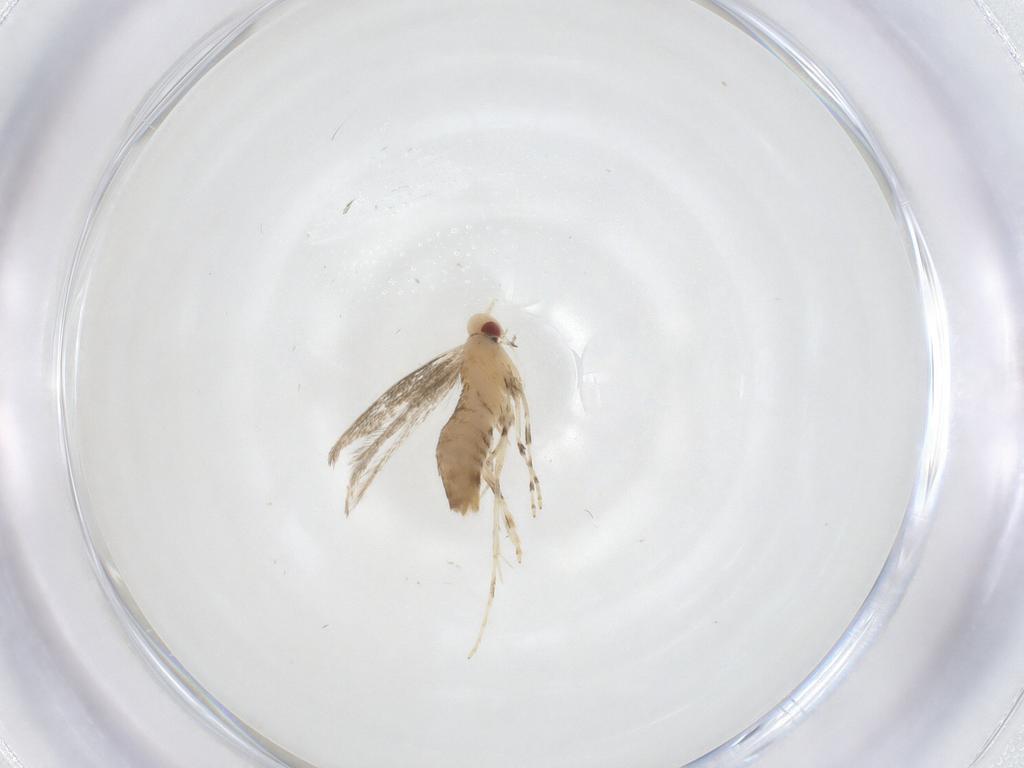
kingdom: Animalia
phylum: Arthropoda
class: Insecta
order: Lepidoptera
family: Gracillariidae
